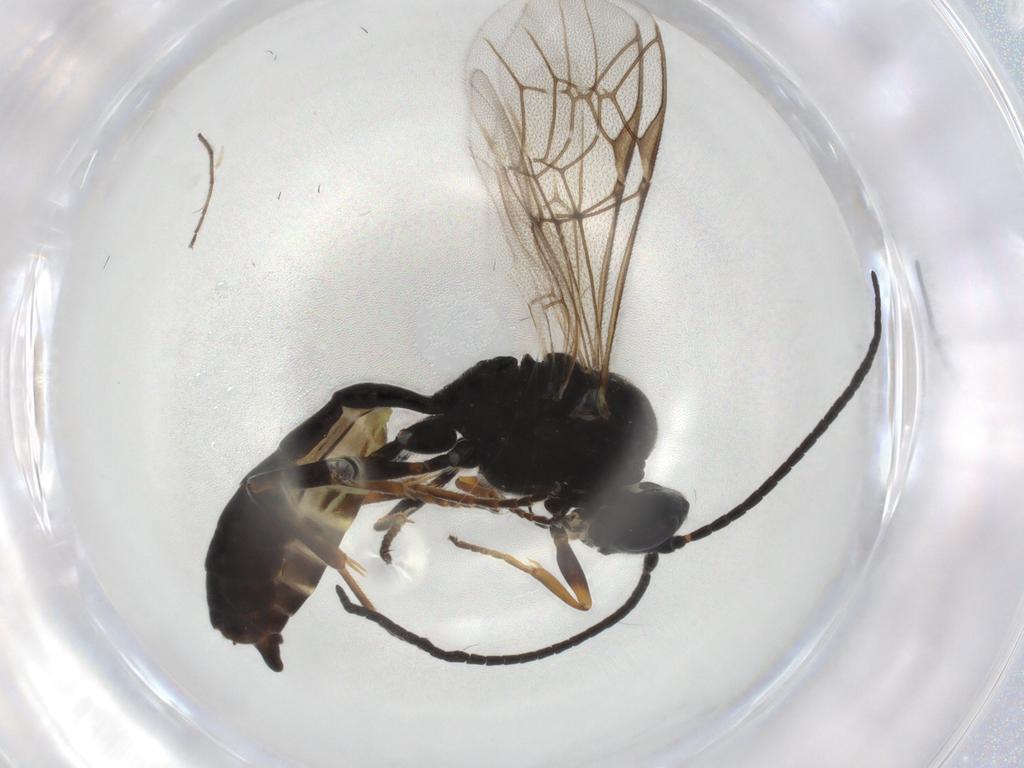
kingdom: Animalia
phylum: Arthropoda
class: Insecta
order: Hymenoptera
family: Ichneumonidae
